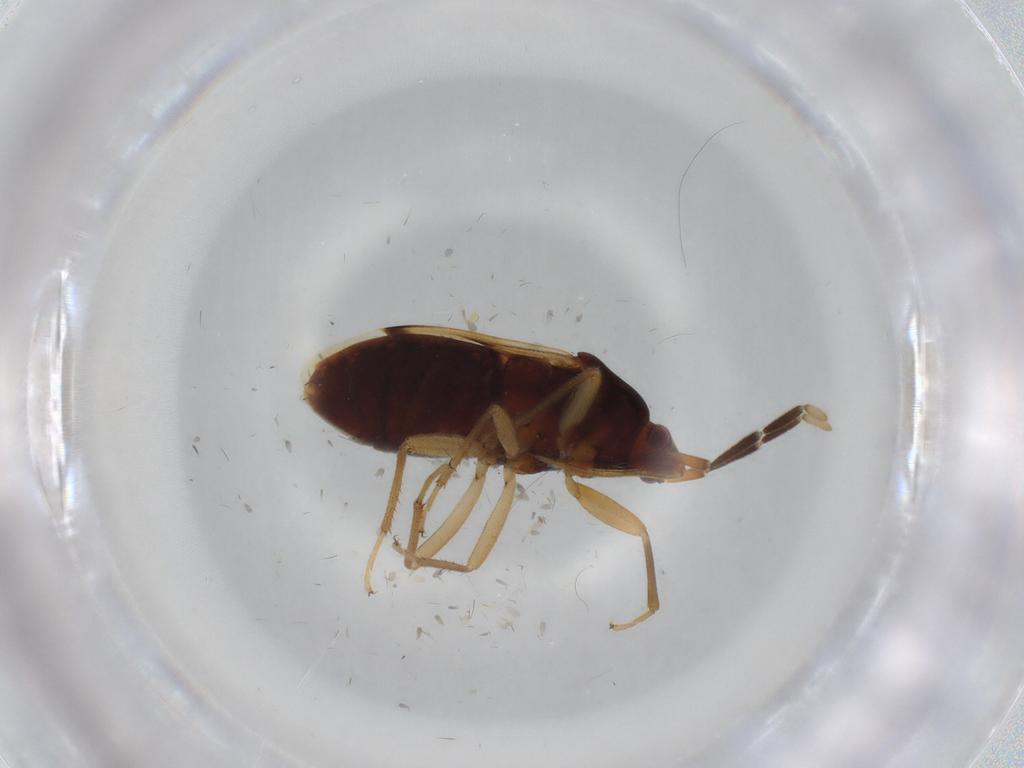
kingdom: Animalia
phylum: Arthropoda
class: Insecta
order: Hemiptera
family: Rhyparochromidae
